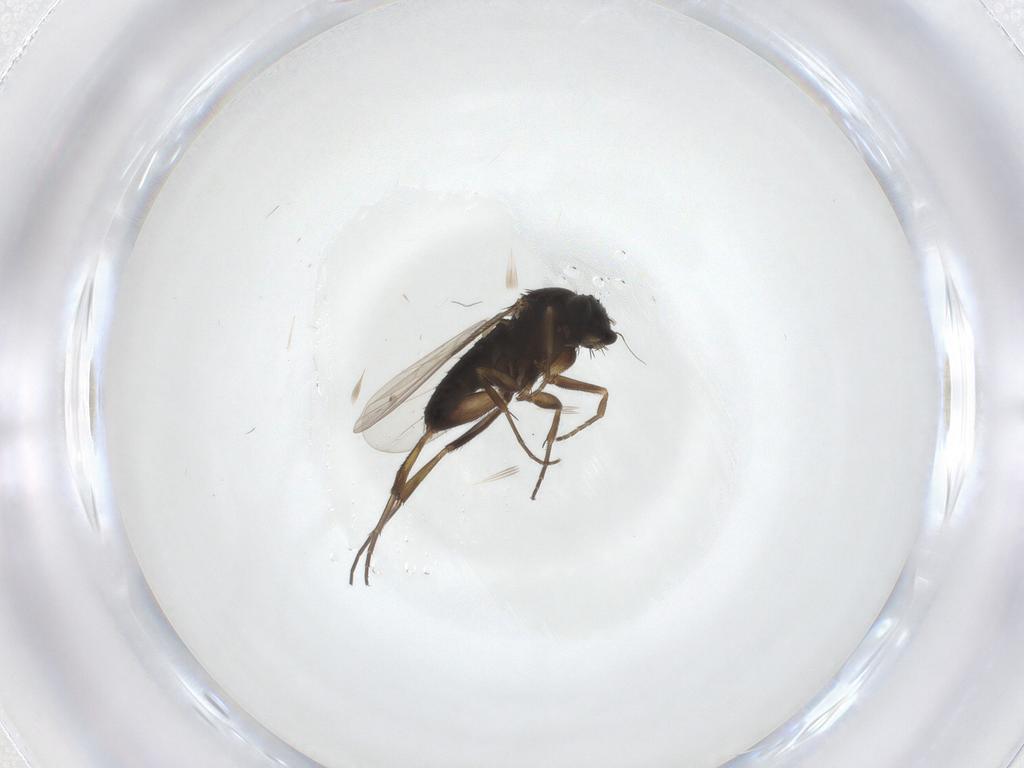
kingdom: Animalia
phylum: Arthropoda
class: Insecta
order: Diptera
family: Phoridae
